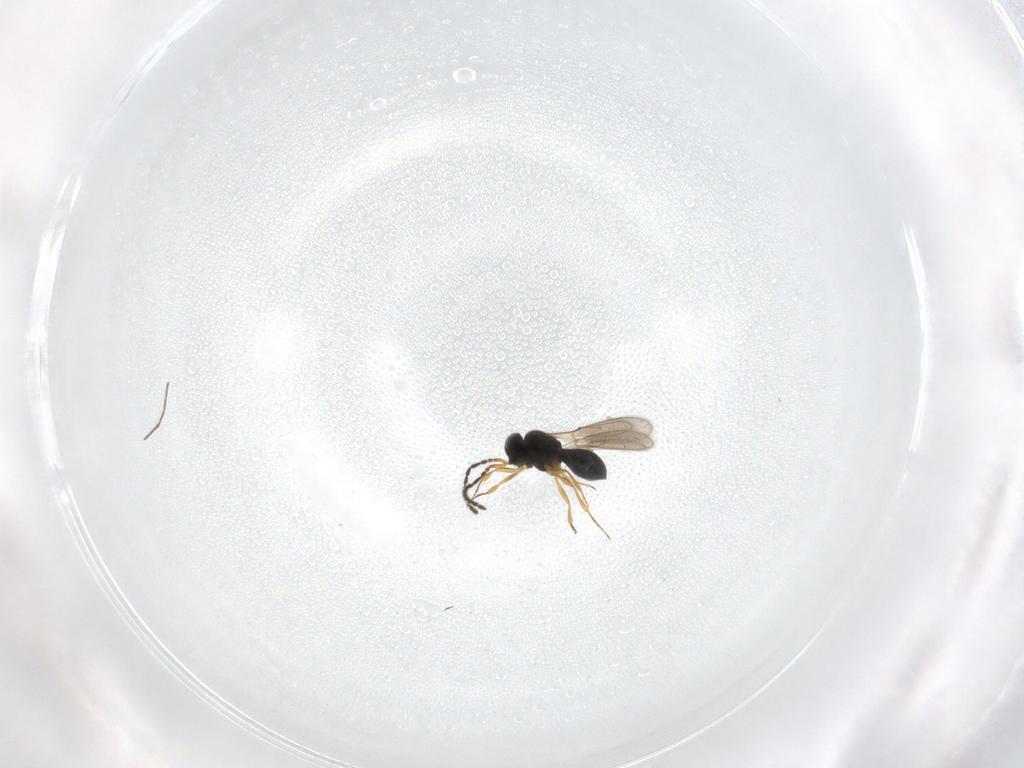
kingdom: Animalia
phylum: Arthropoda
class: Insecta
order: Hymenoptera
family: Scelionidae
